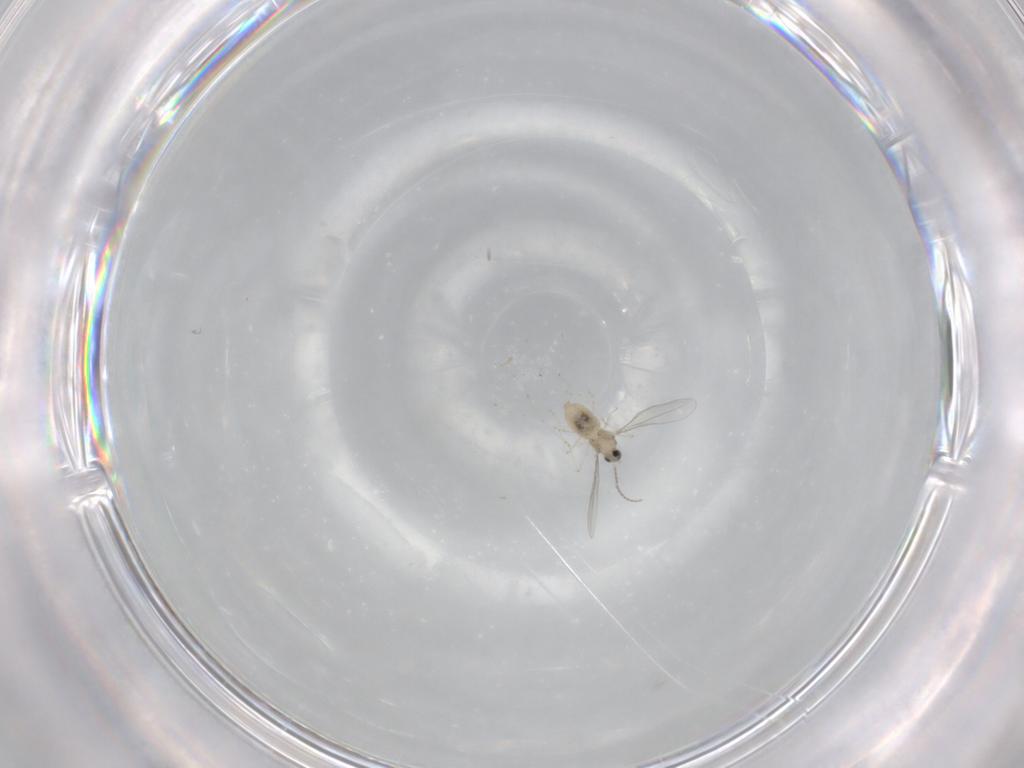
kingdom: Animalia
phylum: Arthropoda
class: Insecta
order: Diptera
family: Cecidomyiidae
